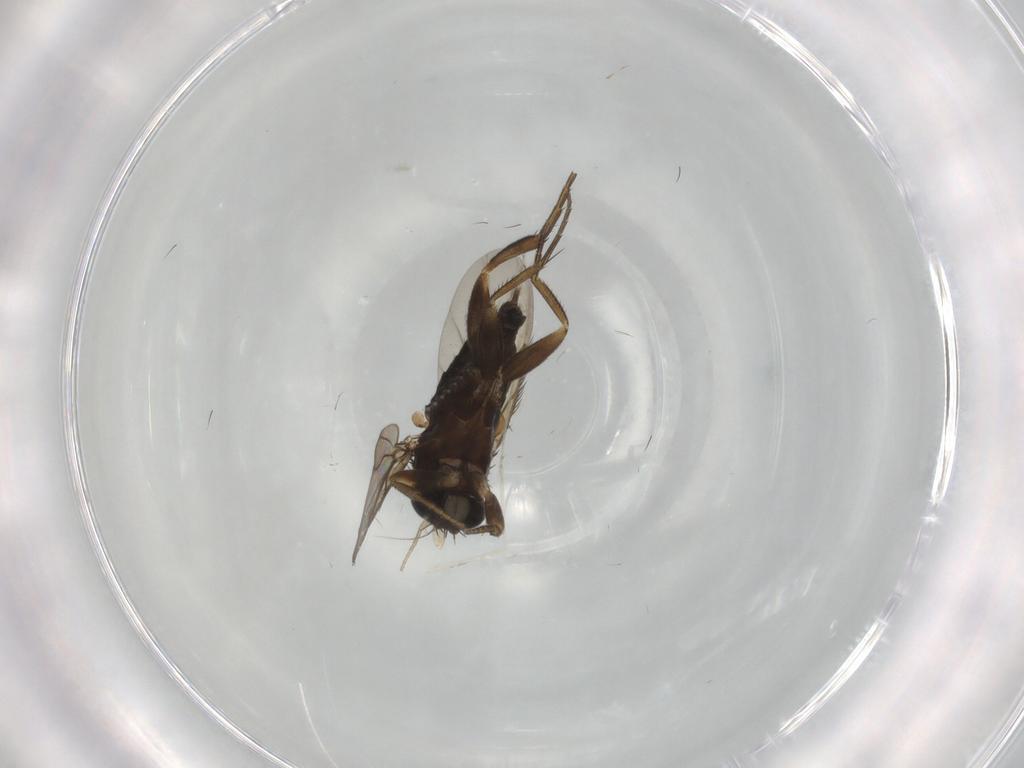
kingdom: Animalia
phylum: Arthropoda
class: Insecta
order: Diptera
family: Phoridae
